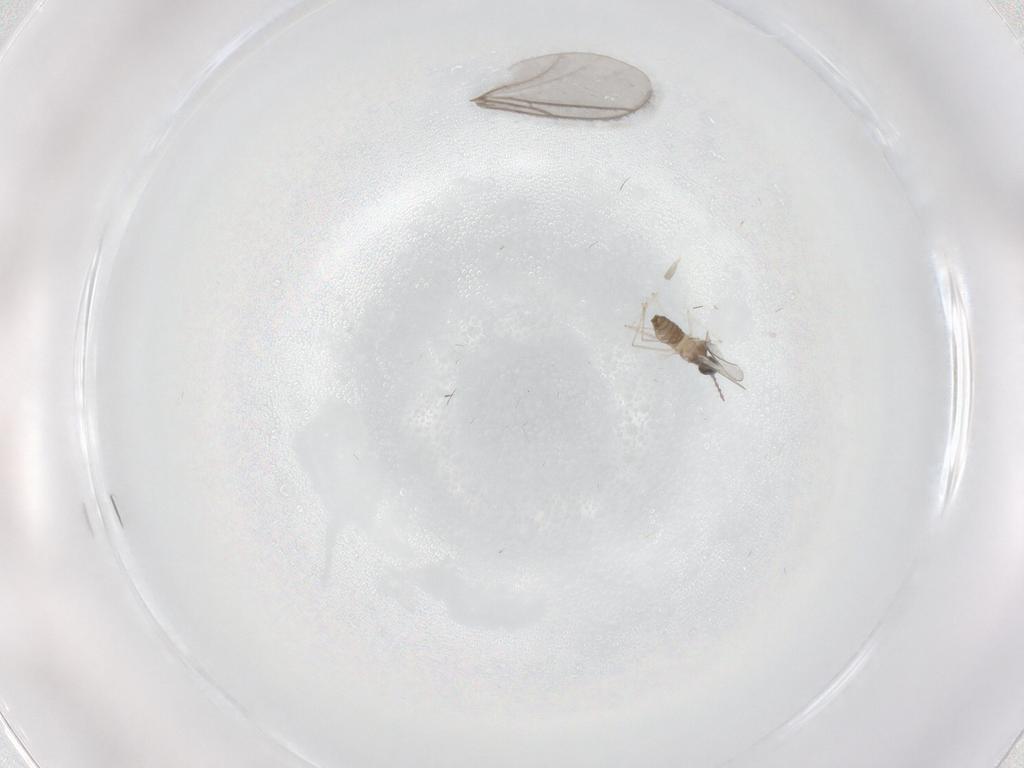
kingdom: Animalia
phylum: Arthropoda
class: Insecta
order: Diptera
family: Cecidomyiidae
